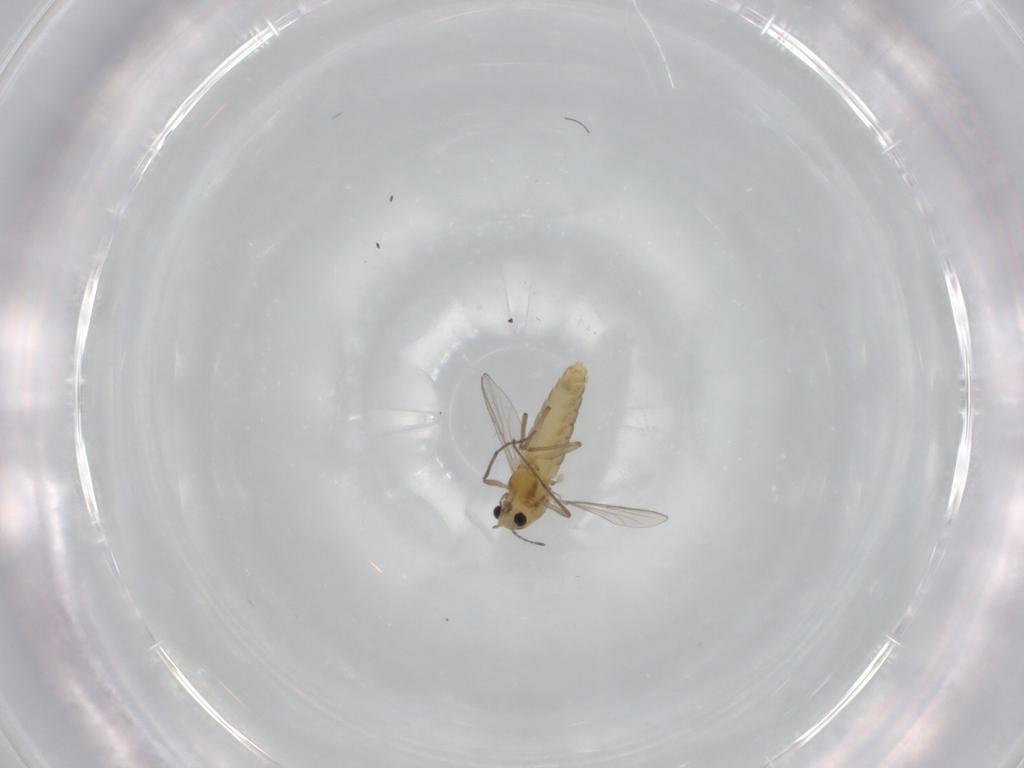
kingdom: Animalia
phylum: Arthropoda
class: Insecta
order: Diptera
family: Chironomidae
